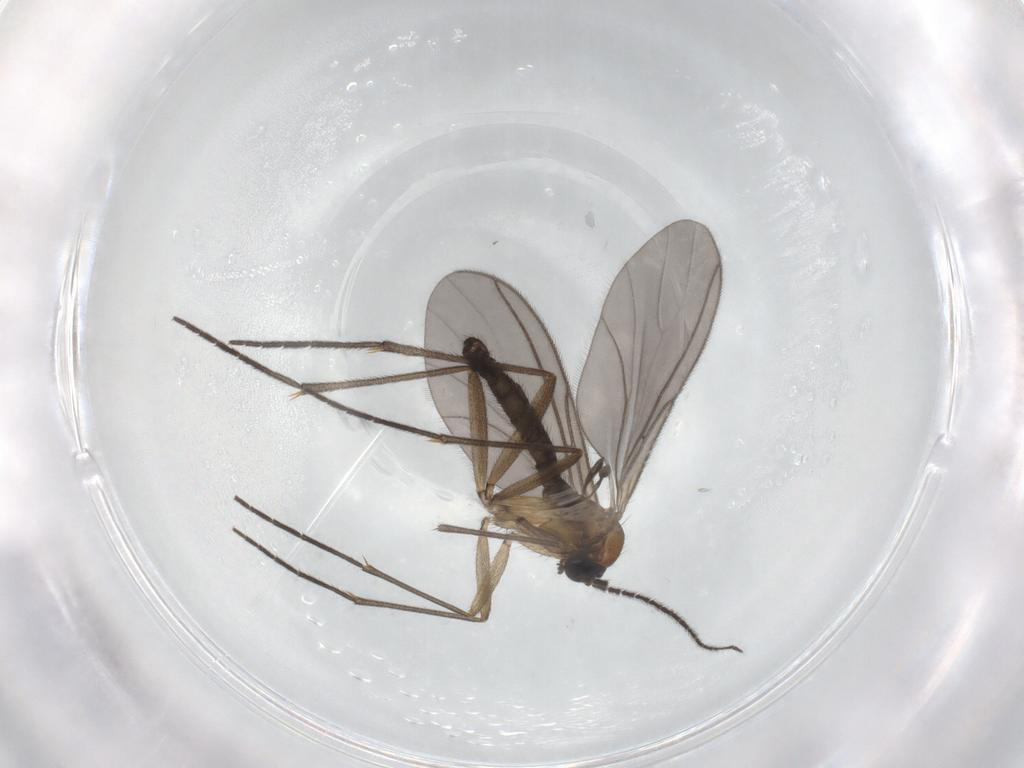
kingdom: Animalia
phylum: Arthropoda
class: Insecta
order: Diptera
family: Sciaridae
